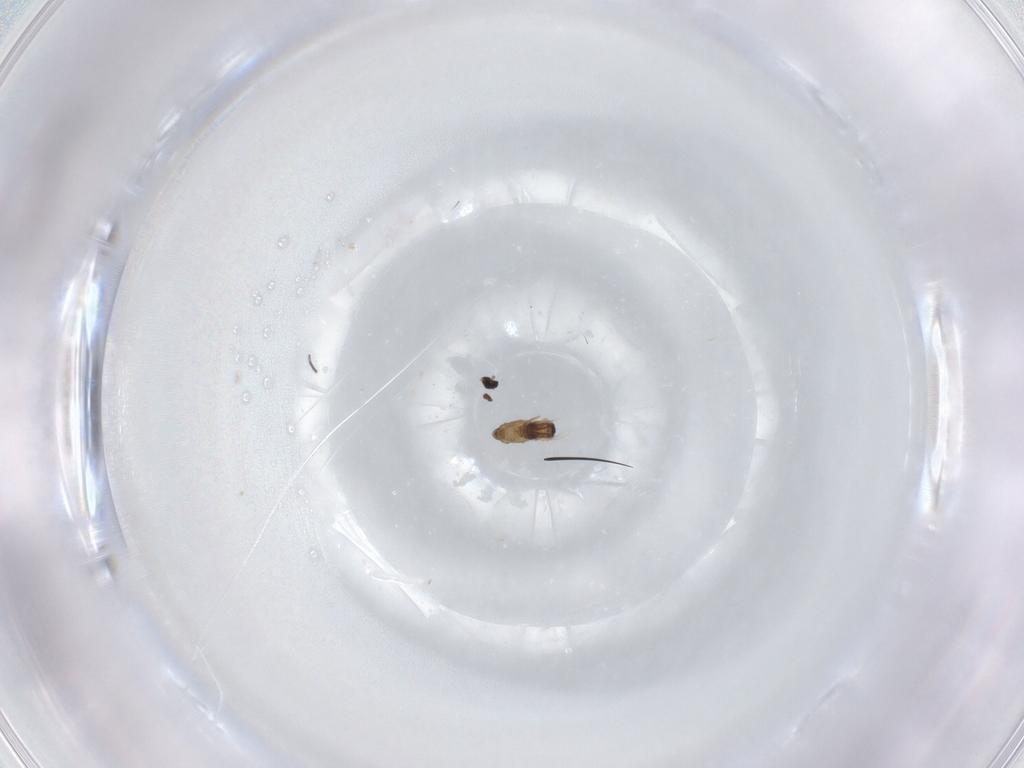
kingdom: Animalia
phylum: Arthropoda
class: Insecta
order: Diptera
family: Cecidomyiidae
